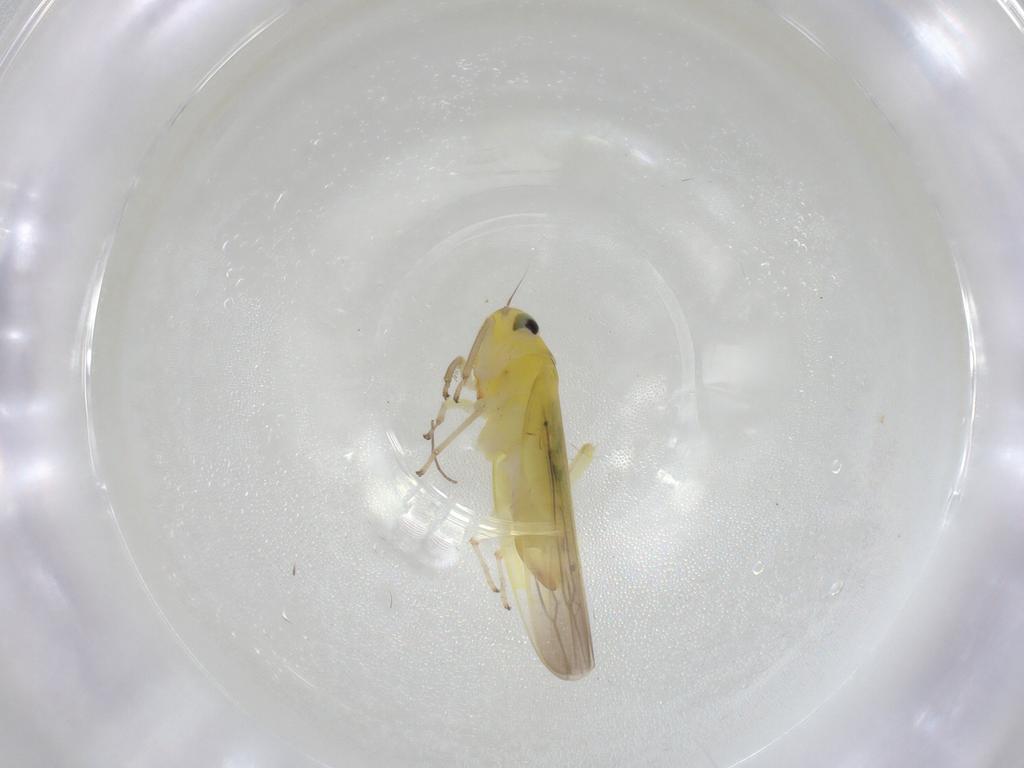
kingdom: Animalia
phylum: Arthropoda
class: Insecta
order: Hemiptera
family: Cicadellidae
